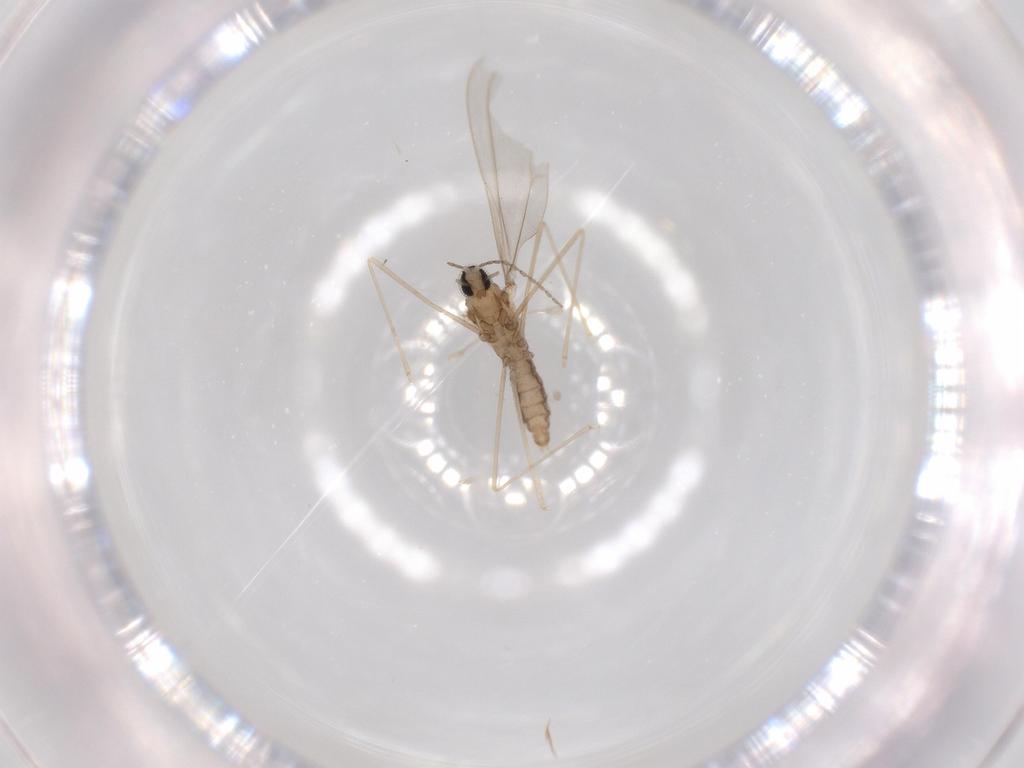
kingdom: Animalia
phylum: Arthropoda
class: Insecta
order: Diptera
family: Cecidomyiidae
